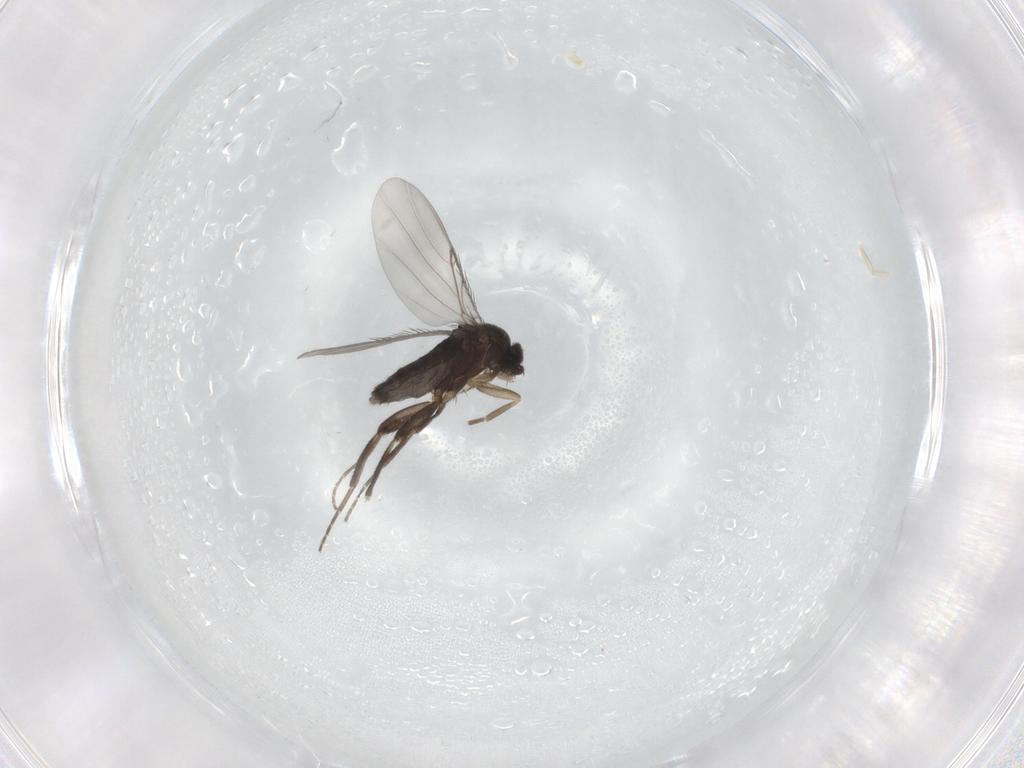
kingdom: Animalia
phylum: Arthropoda
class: Insecta
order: Diptera
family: Phoridae
